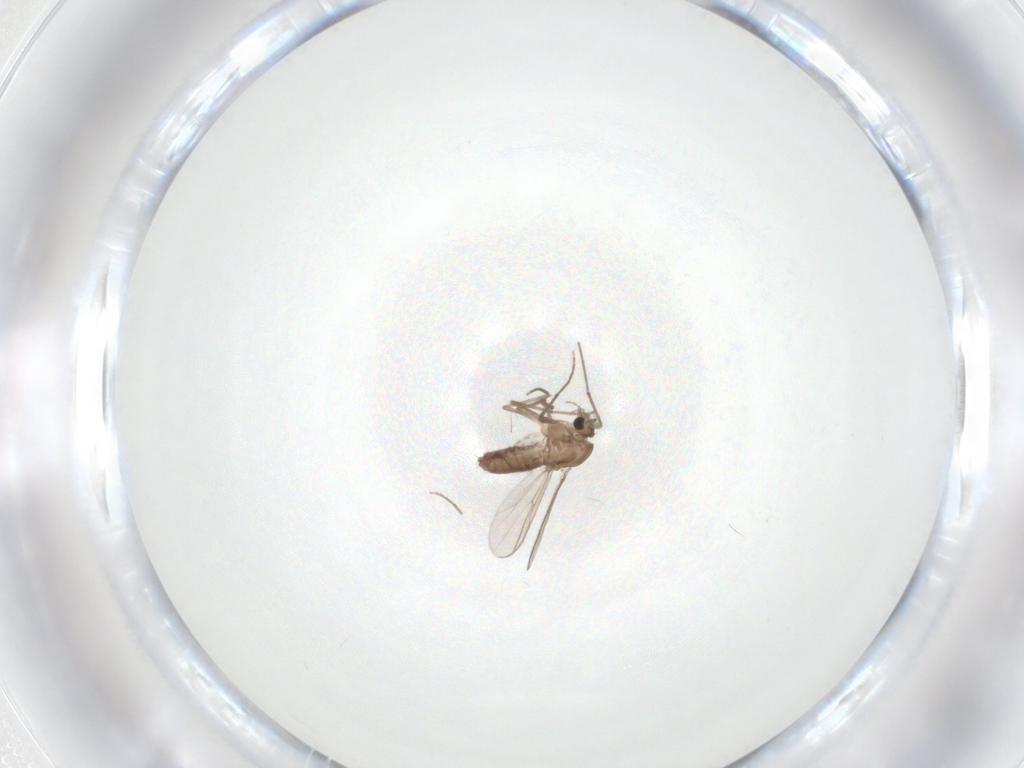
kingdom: Animalia
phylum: Arthropoda
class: Insecta
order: Diptera
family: Chironomidae
